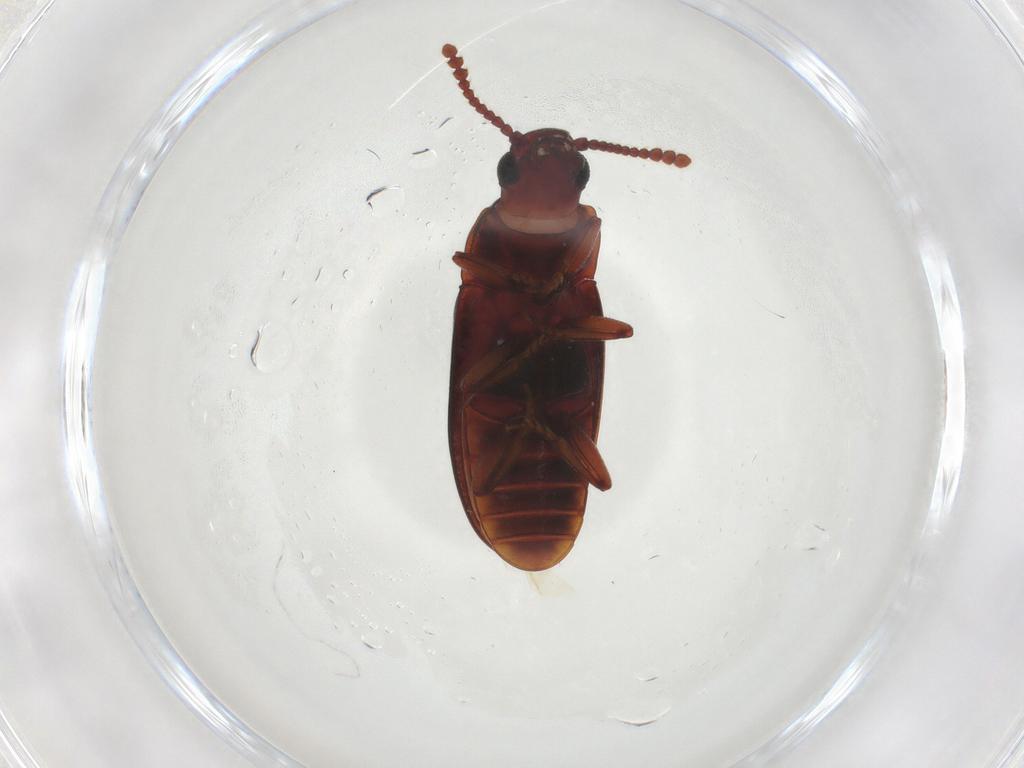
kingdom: Animalia
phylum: Arthropoda
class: Insecta
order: Coleoptera
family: Erotylidae
